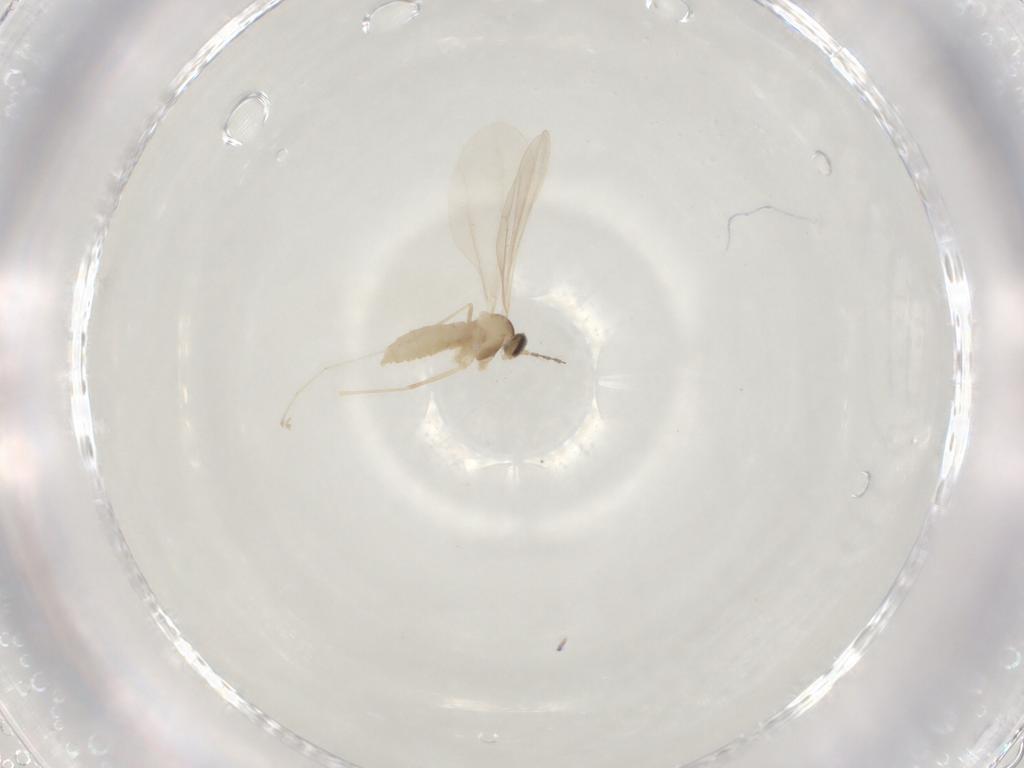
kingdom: Animalia
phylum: Arthropoda
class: Insecta
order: Diptera
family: Cecidomyiidae
